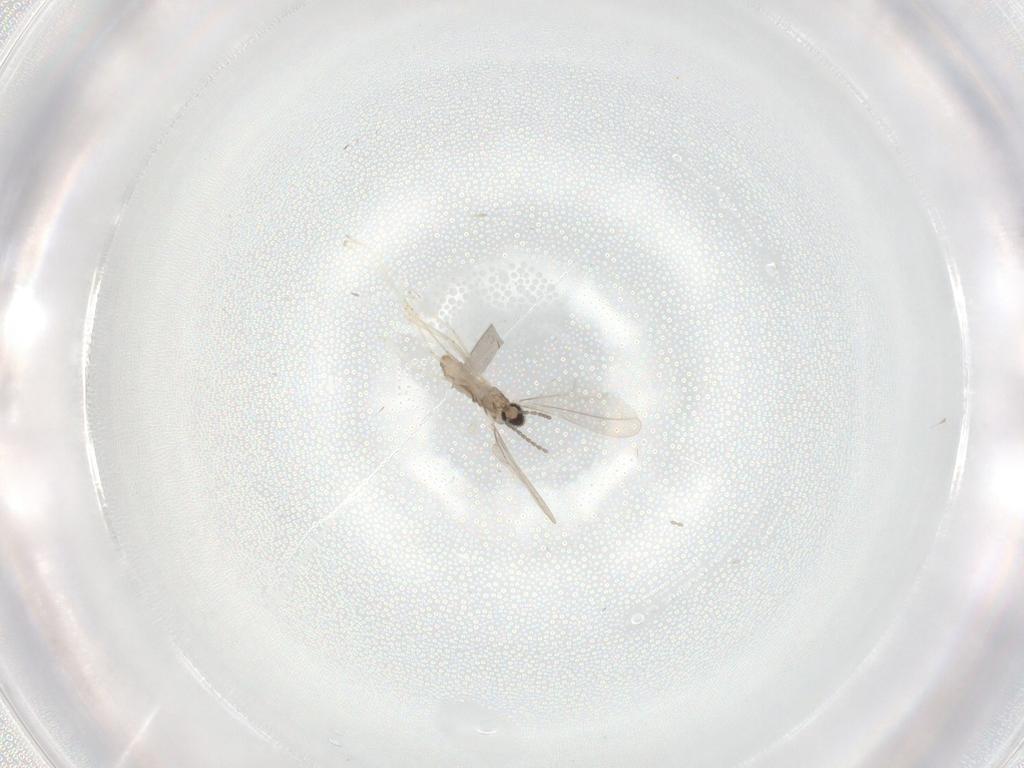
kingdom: Animalia
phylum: Arthropoda
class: Insecta
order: Diptera
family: Cecidomyiidae
